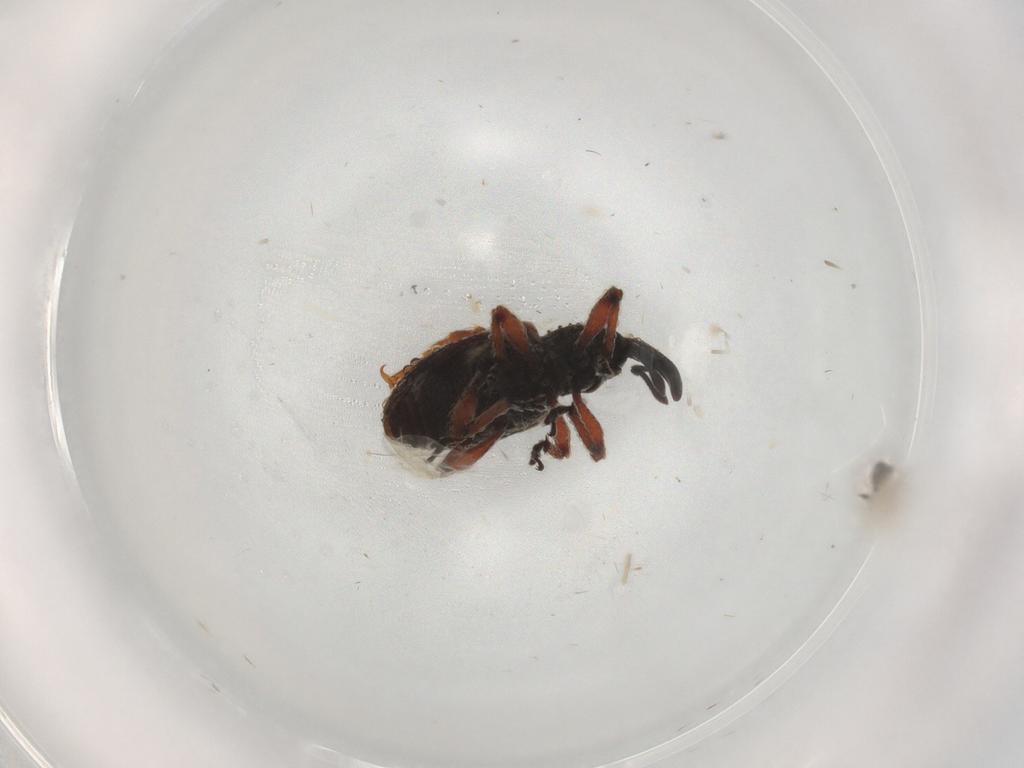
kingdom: Animalia
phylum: Arthropoda
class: Insecta
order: Coleoptera
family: Curculionidae
